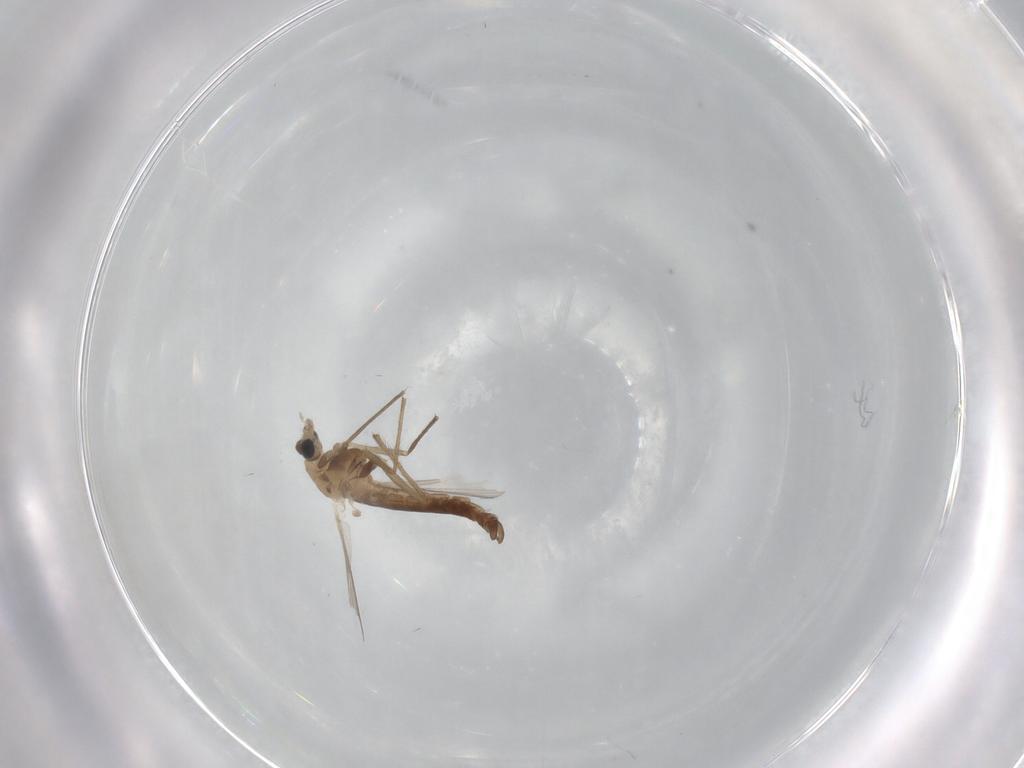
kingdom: Animalia
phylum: Arthropoda
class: Insecta
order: Diptera
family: Chironomidae
